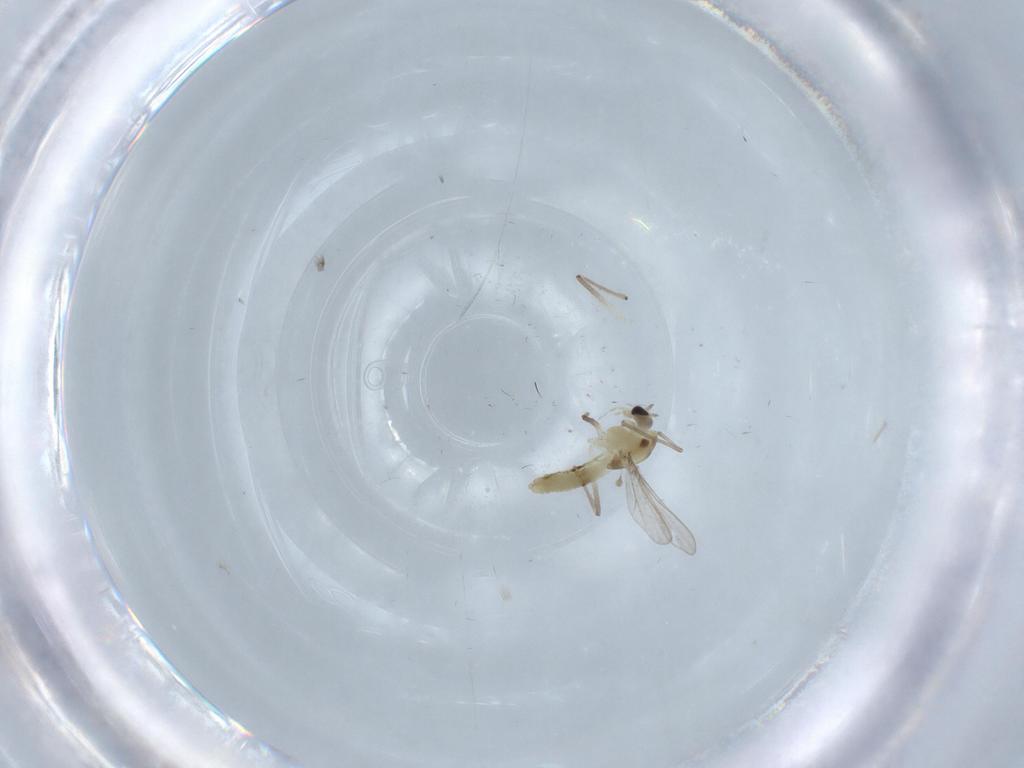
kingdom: Animalia
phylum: Arthropoda
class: Insecta
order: Diptera
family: Chironomidae
